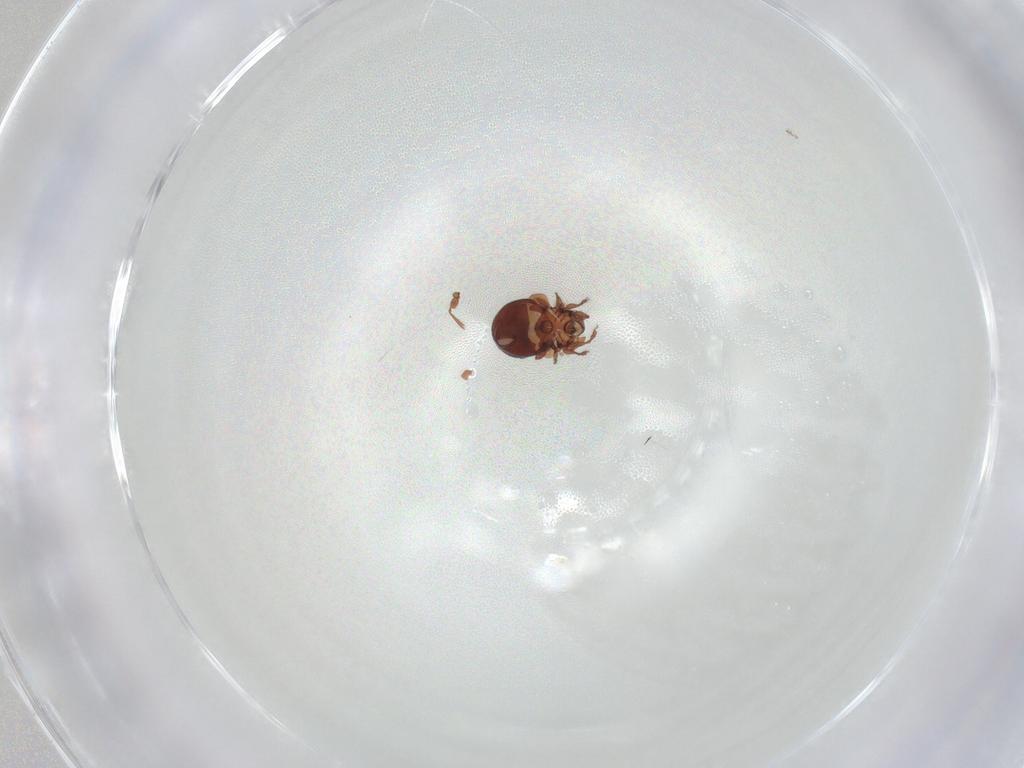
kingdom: Animalia
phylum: Arthropoda
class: Arachnida
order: Sarcoptiformes
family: Humerobatidae
